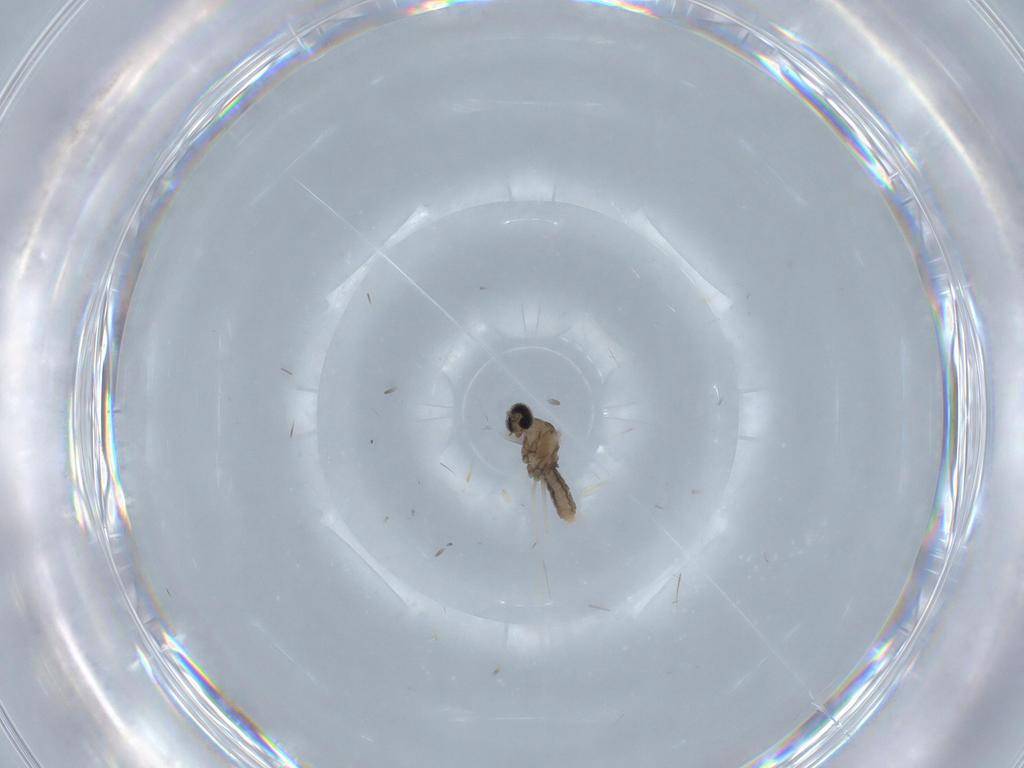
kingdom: Animalia
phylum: Arthropoda
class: Insecta
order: Diptera
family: Cecidomyiidae
